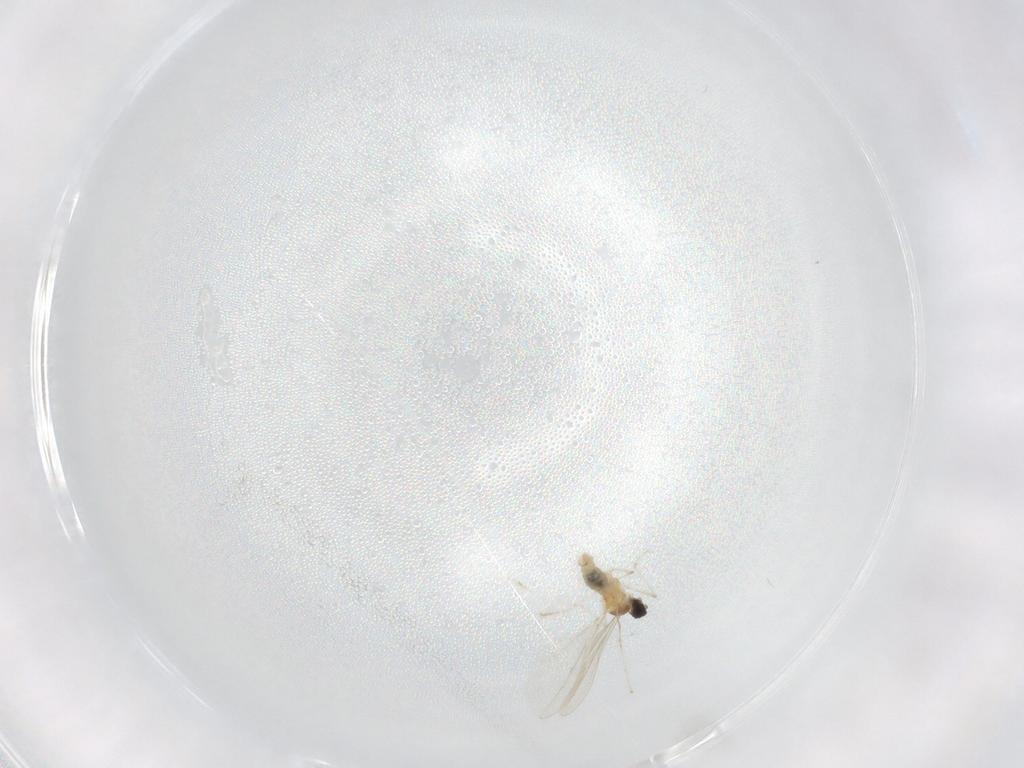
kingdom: Animalia
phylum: Arthropoda
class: Insecta
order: Diptera
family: Cecidomyiidae
